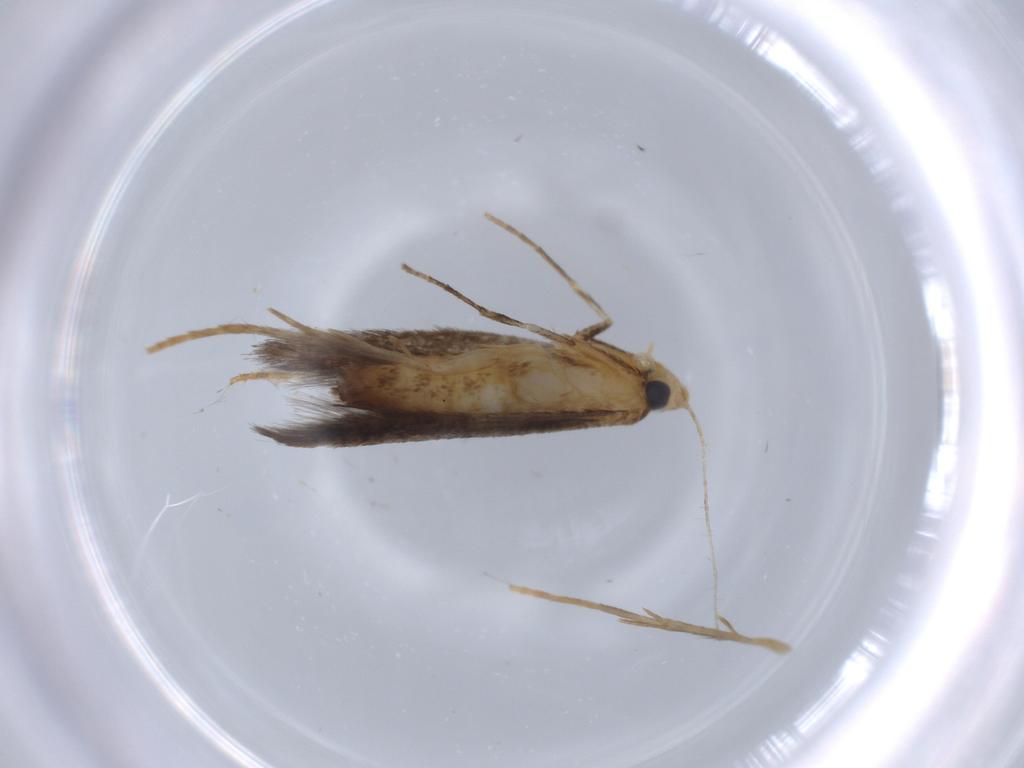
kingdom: Animalia
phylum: Arthropoda
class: Insecta
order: Lepidoptera
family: Tischeriidae
